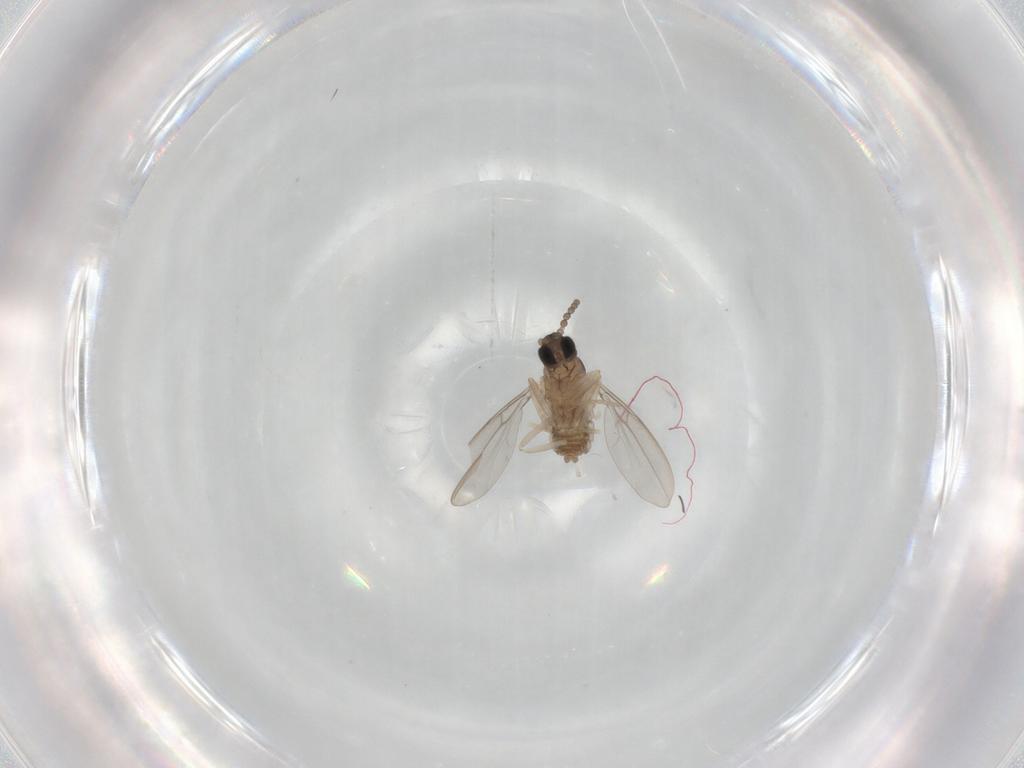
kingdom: Animalia
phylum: Arthropoda
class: Insecta
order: Diptera
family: Cecidomyiidae
